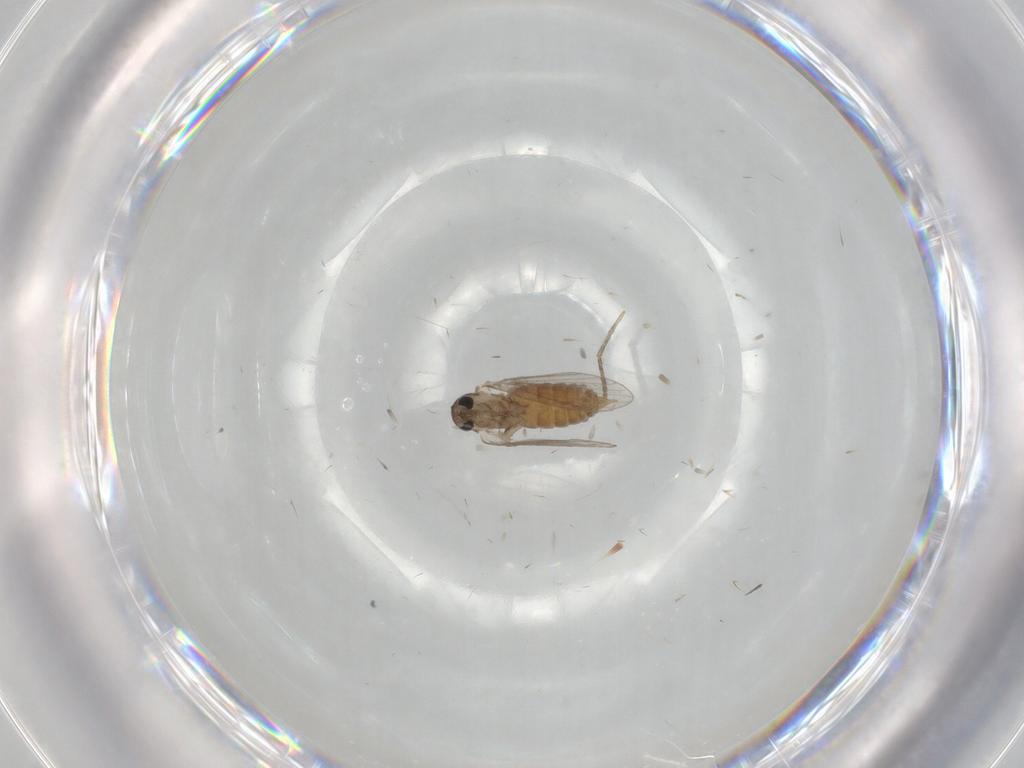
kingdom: Animalia
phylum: Arthropoda
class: Insecta
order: Diptera
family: Psychodidae
